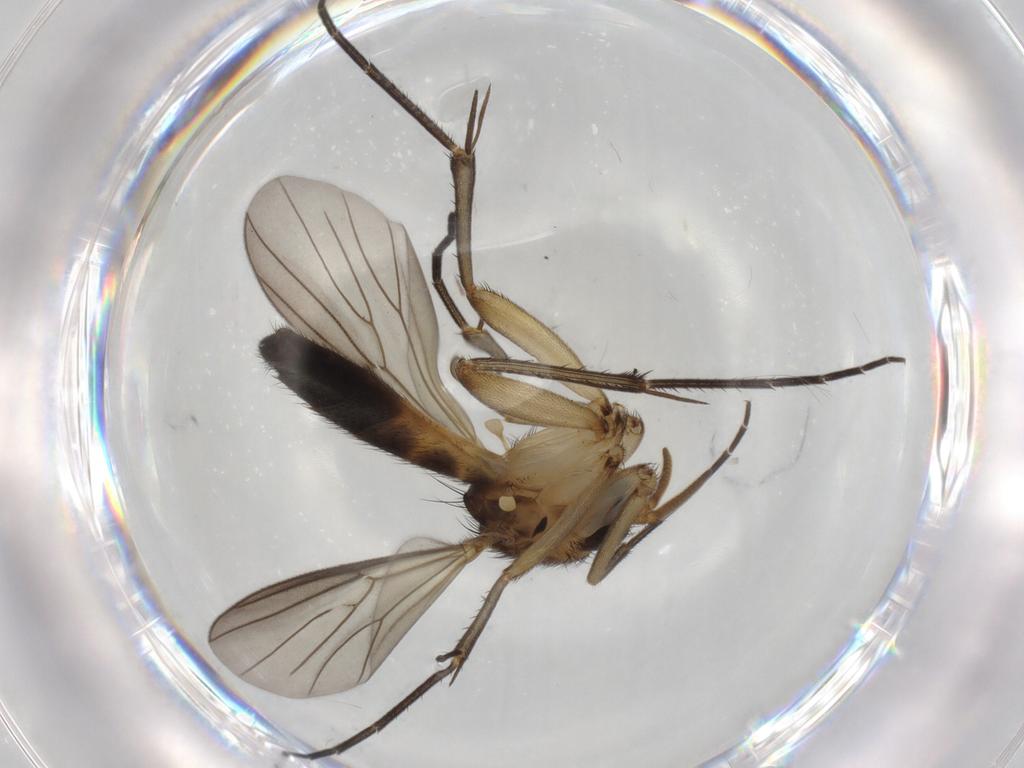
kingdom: Animalia
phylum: Arthropoda
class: Insecta
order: Diptera
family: Mycetophilidae
